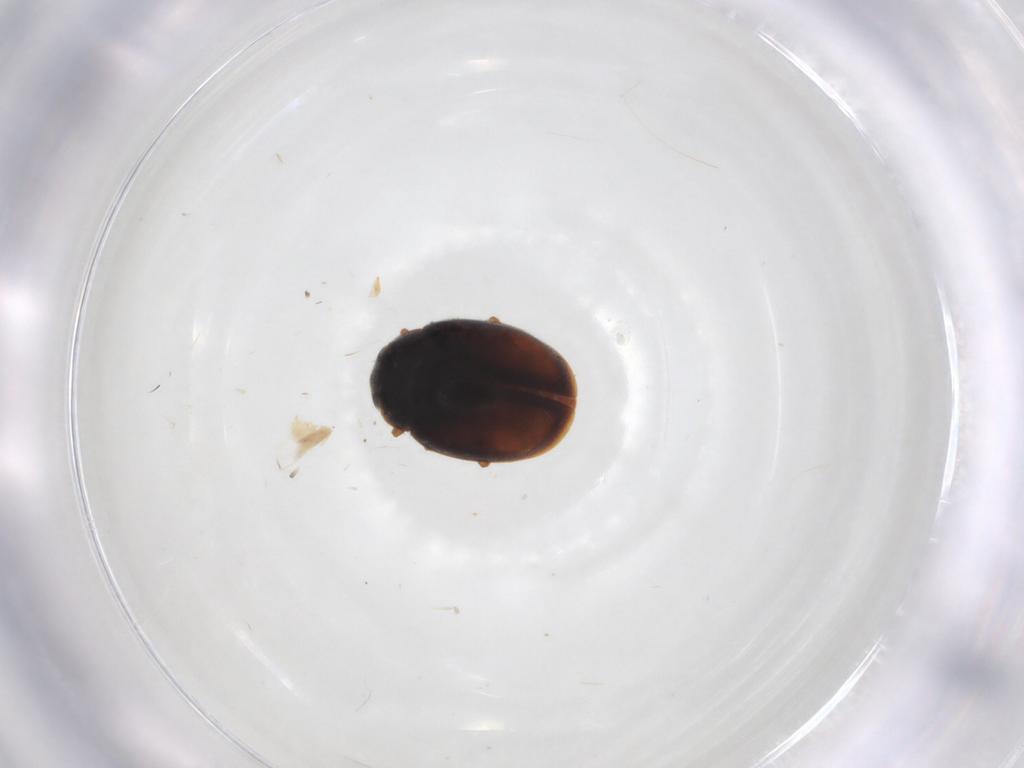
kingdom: Animalia
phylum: Arthropoda
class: Insecta
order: Coleoptera
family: Coccinellidae
